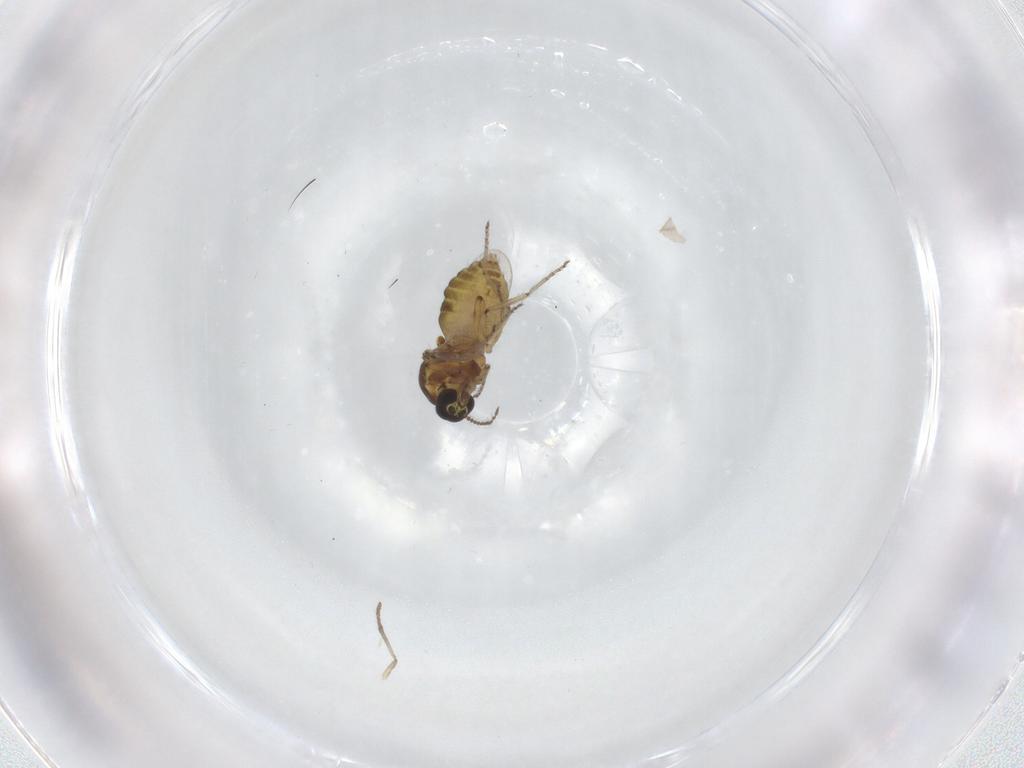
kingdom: Animalia
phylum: Arthropoda
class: Insecta
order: Diptera
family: Ceratopogonidae
